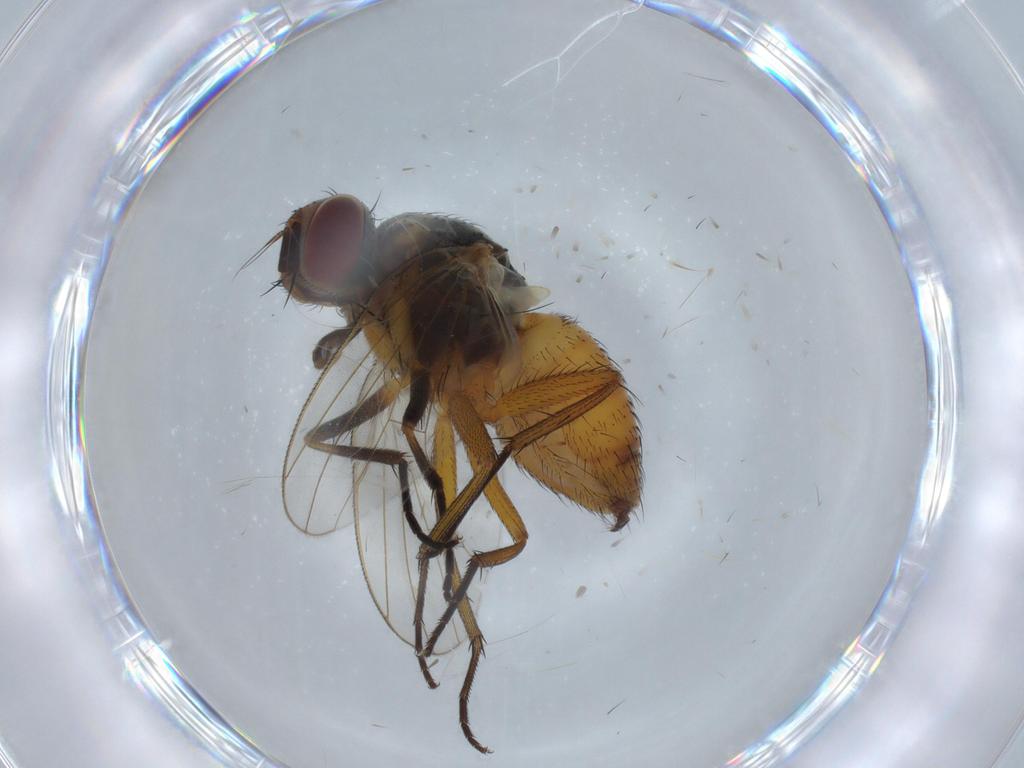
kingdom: Animalia
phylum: Arthropoda
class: Insecta
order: Diptera
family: Muscidae
